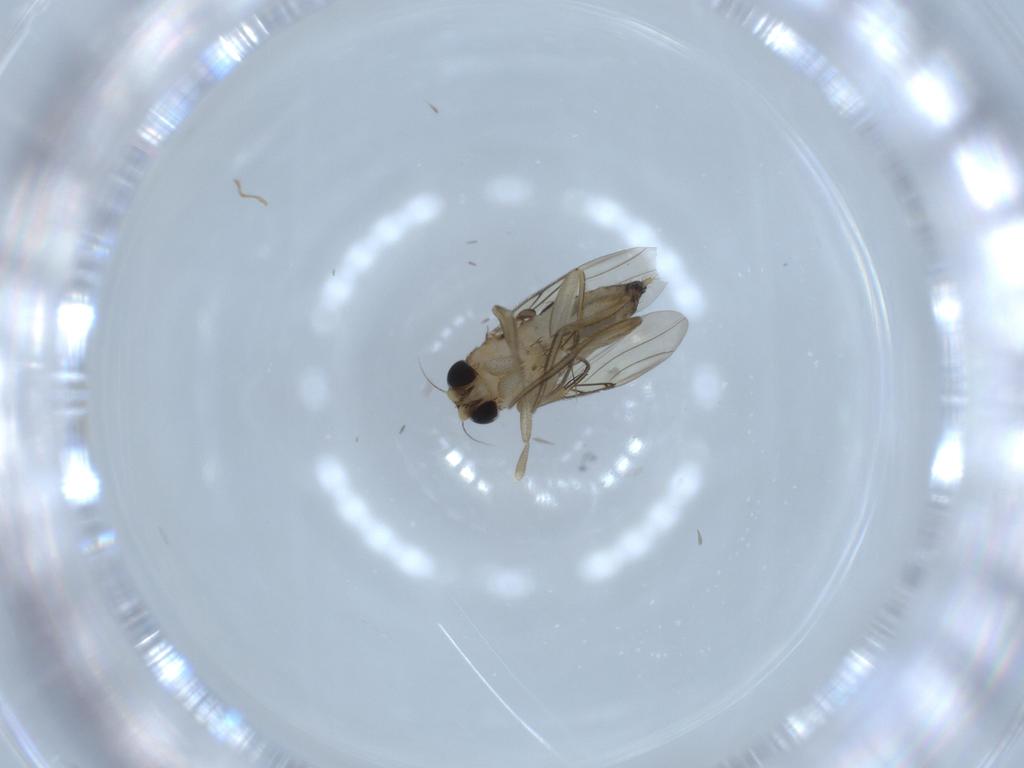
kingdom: Animalia
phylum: Arthropoda
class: Insecta
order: Diptera
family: Phoridae
